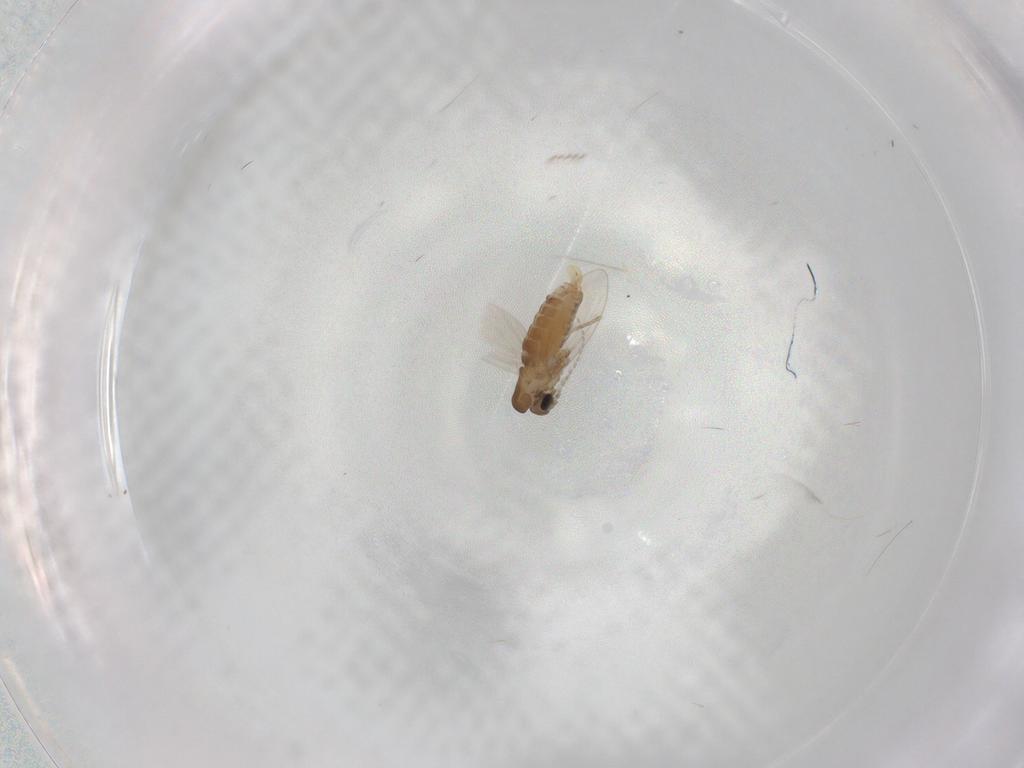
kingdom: Animalia
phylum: Arthropoda
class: Insecta
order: Diptera
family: Psychodidae
